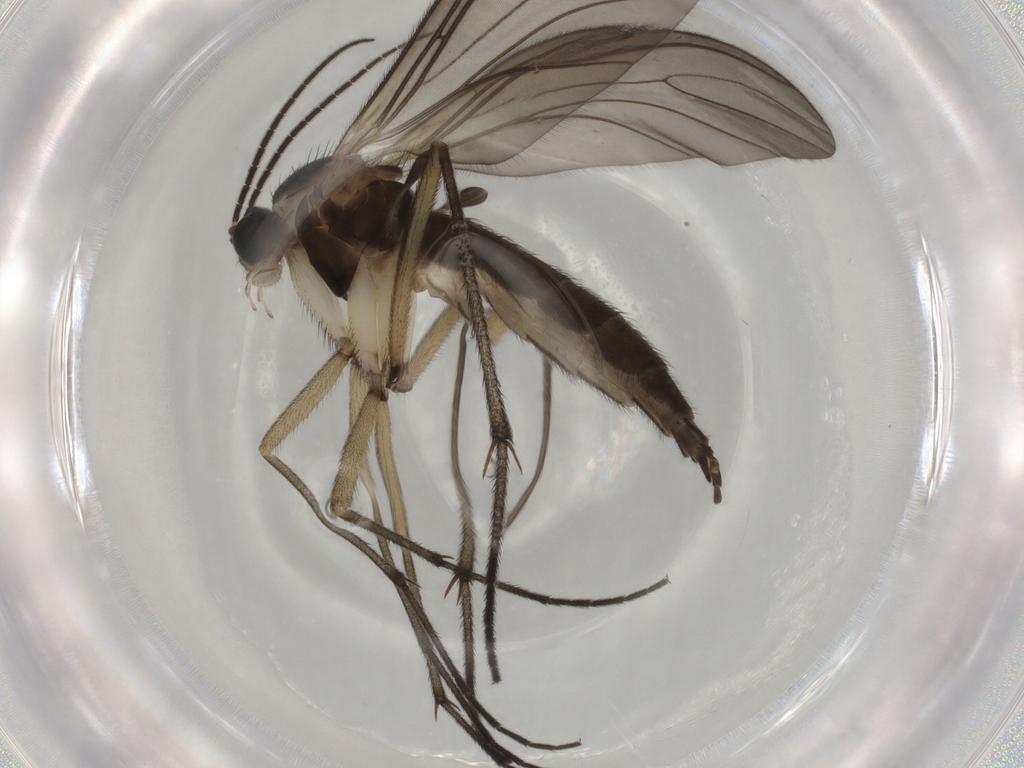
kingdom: Animalia
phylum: Arthropoda
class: Insecta
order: Diptera
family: Sciaridae
